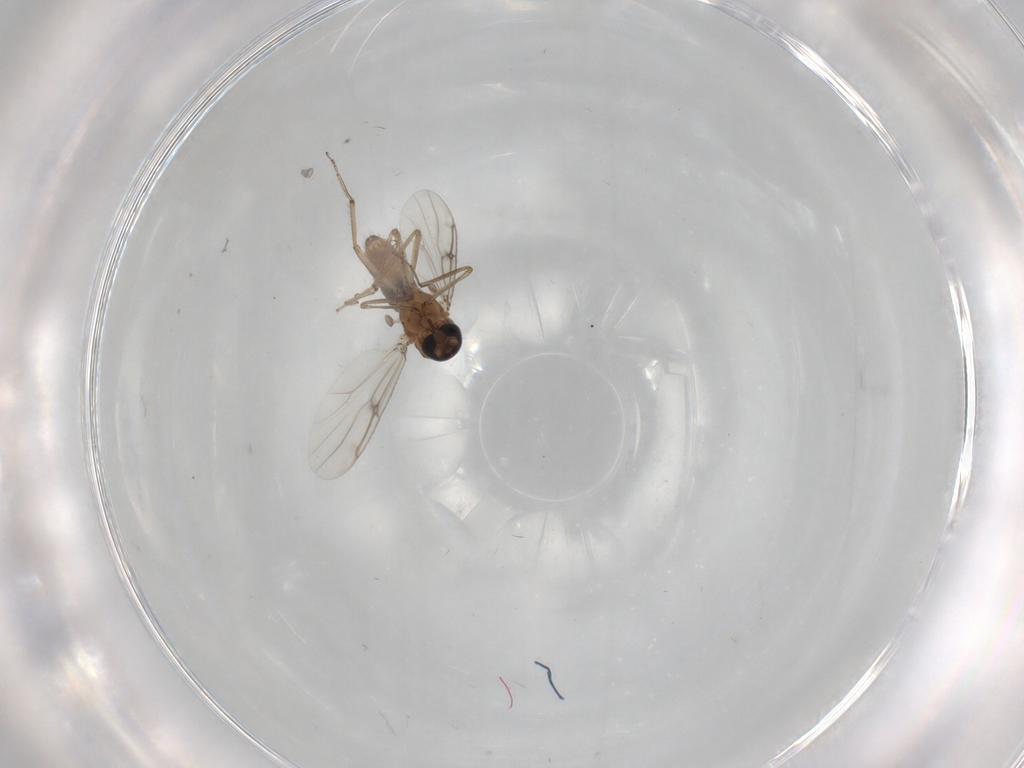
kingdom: Animalia
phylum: Arthropoda
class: Insecta
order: Diptera
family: Ceratopogonidae
